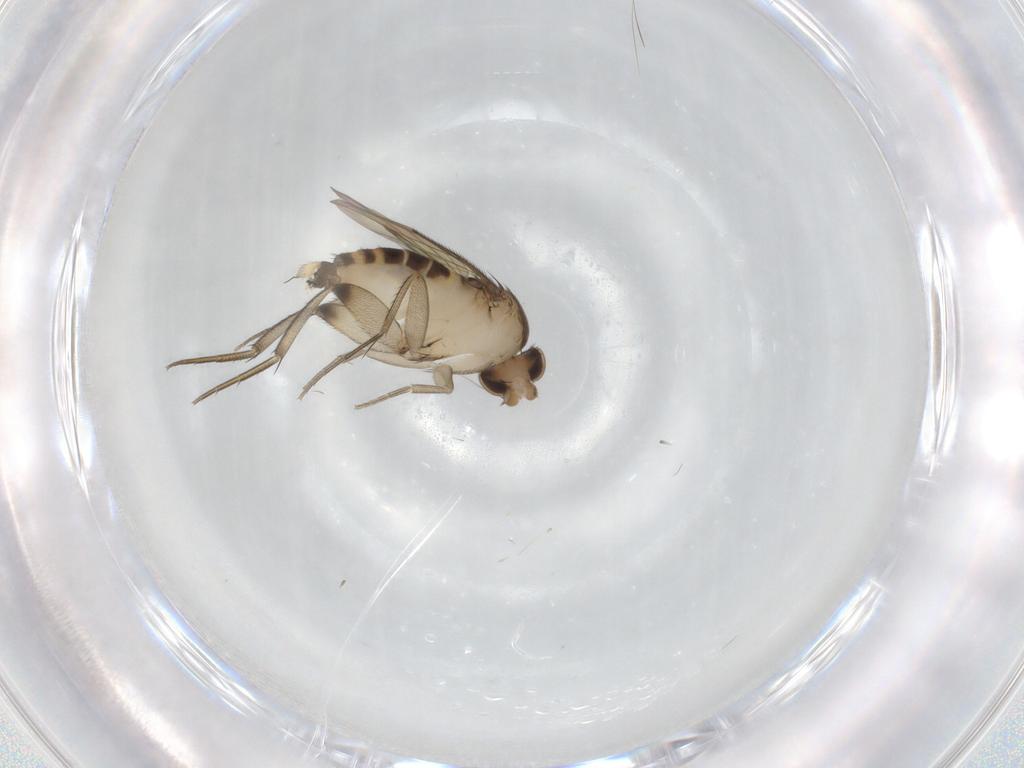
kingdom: Animalia
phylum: Arthropoda
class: Insecta
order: Diptera
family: Phoridae
